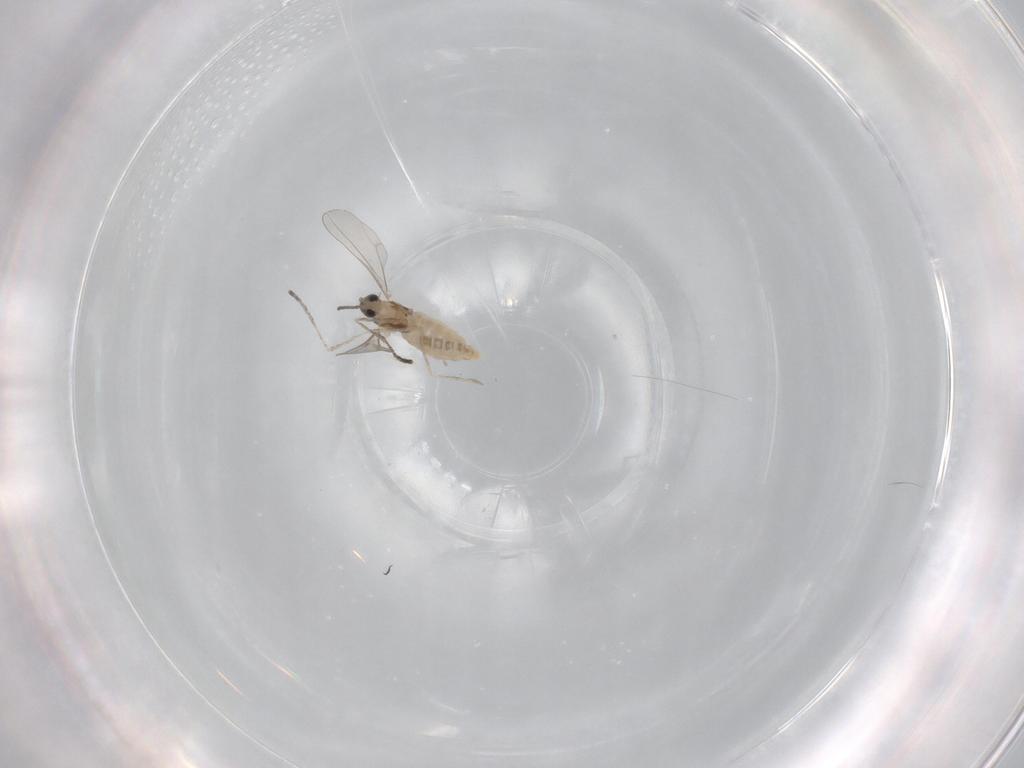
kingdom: Animalia
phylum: Arthropoda
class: Insecta
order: Diptera
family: Cecidomyiidae
